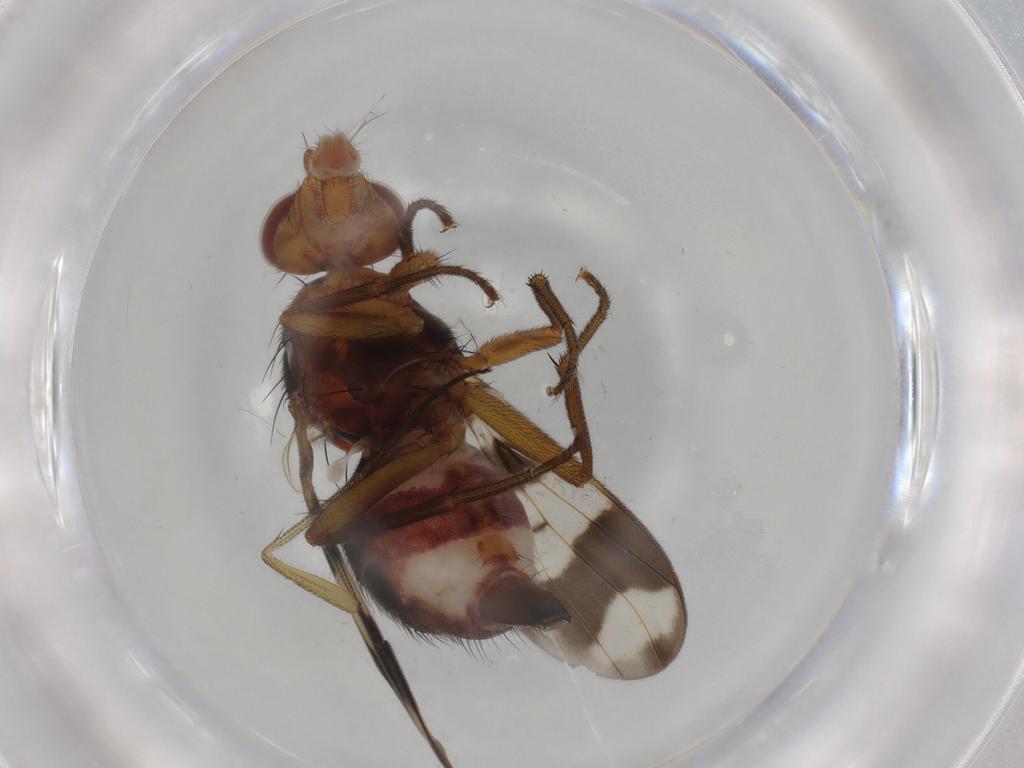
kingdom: Animalia
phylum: Arthropoda
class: Insecta
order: Diptera
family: Richardiidae
